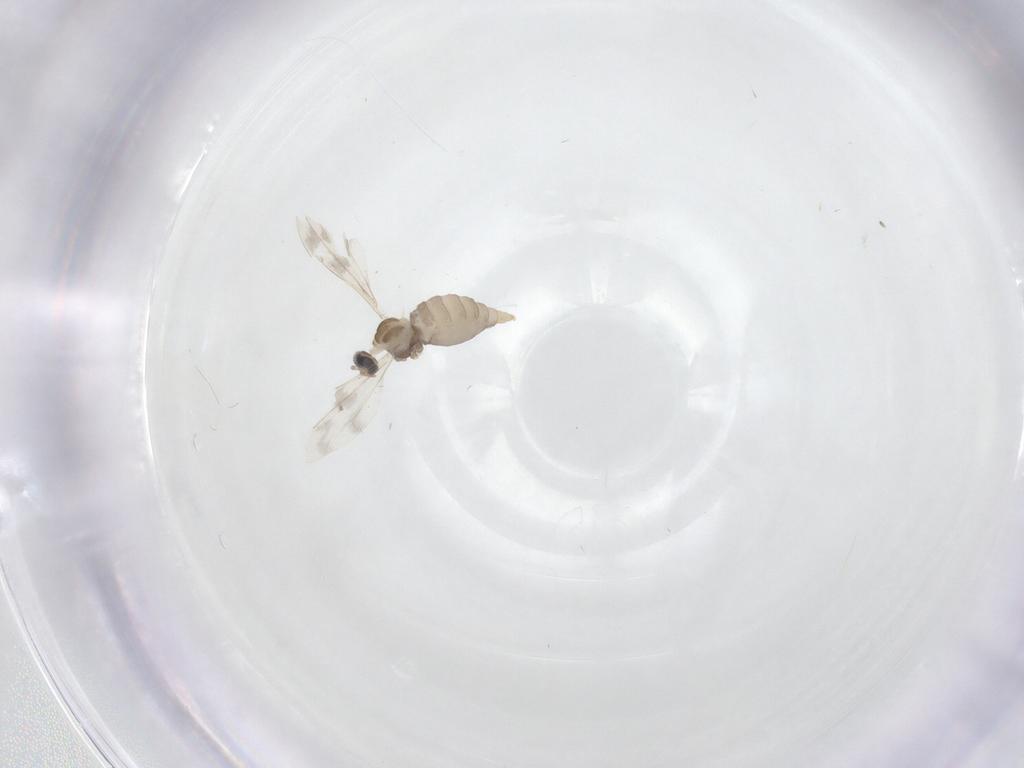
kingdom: Animalia
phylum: Arthropoda
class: Insecta
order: Diptera
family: Cecidomyiidae
